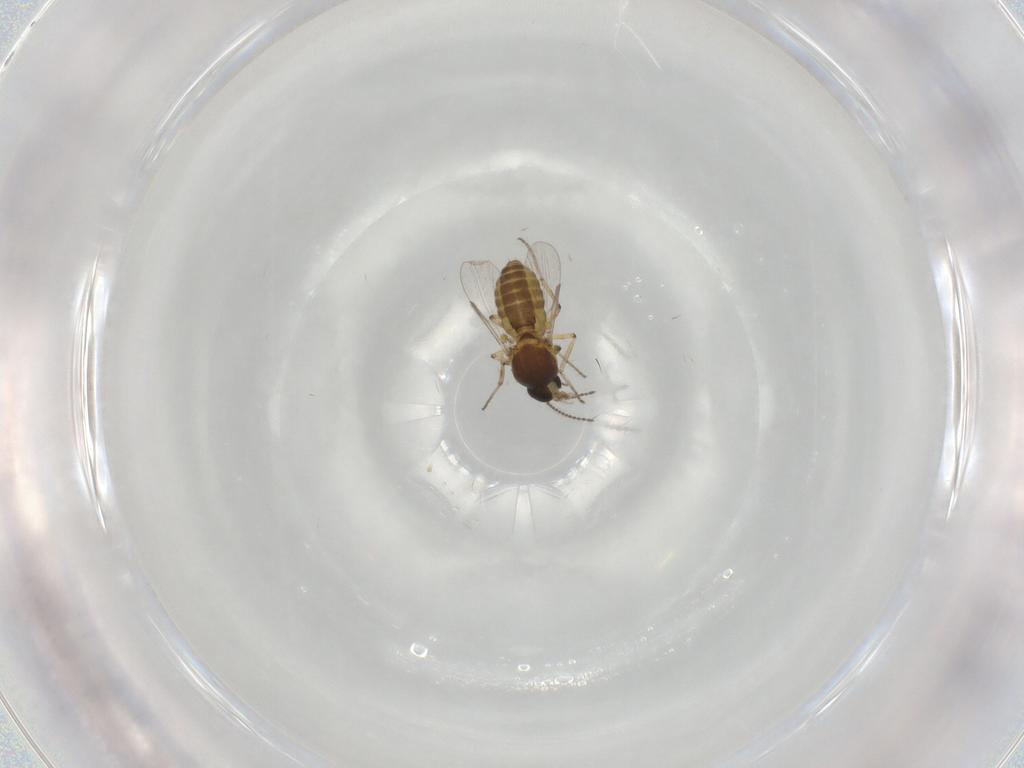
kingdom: Animalia
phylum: Arthropoda
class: Insecta
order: Diptera
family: Ceratopogonidae
